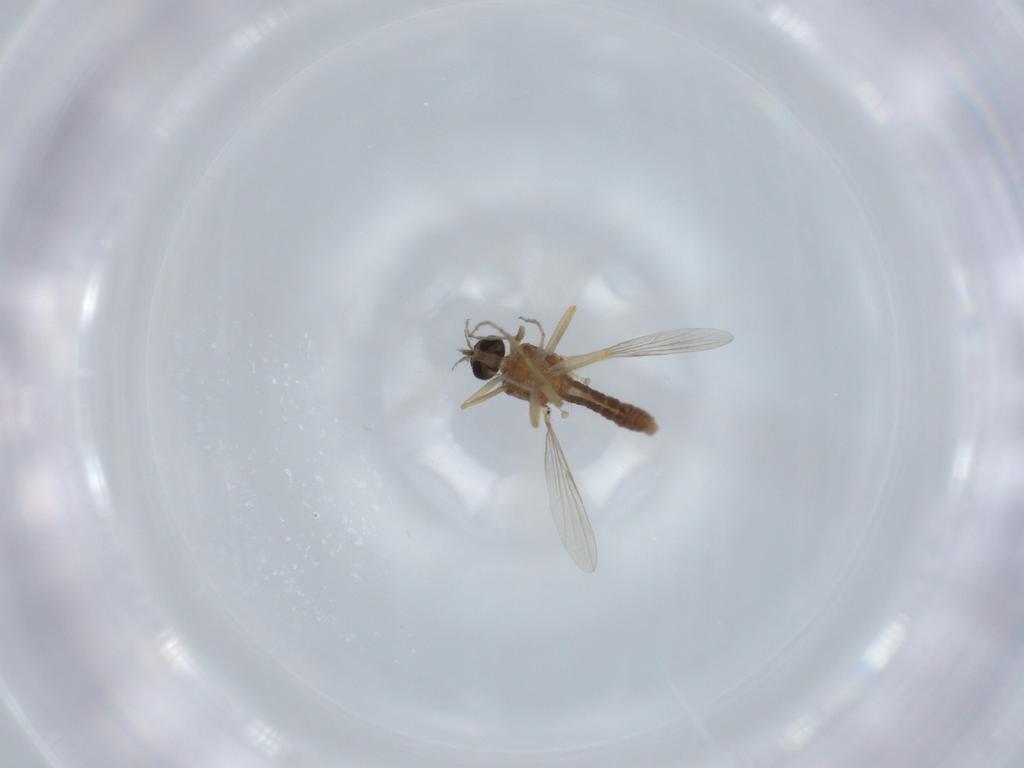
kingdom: Animalia
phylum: Arthropoda
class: Insecta
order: Diptera
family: Ceratopogonidae
